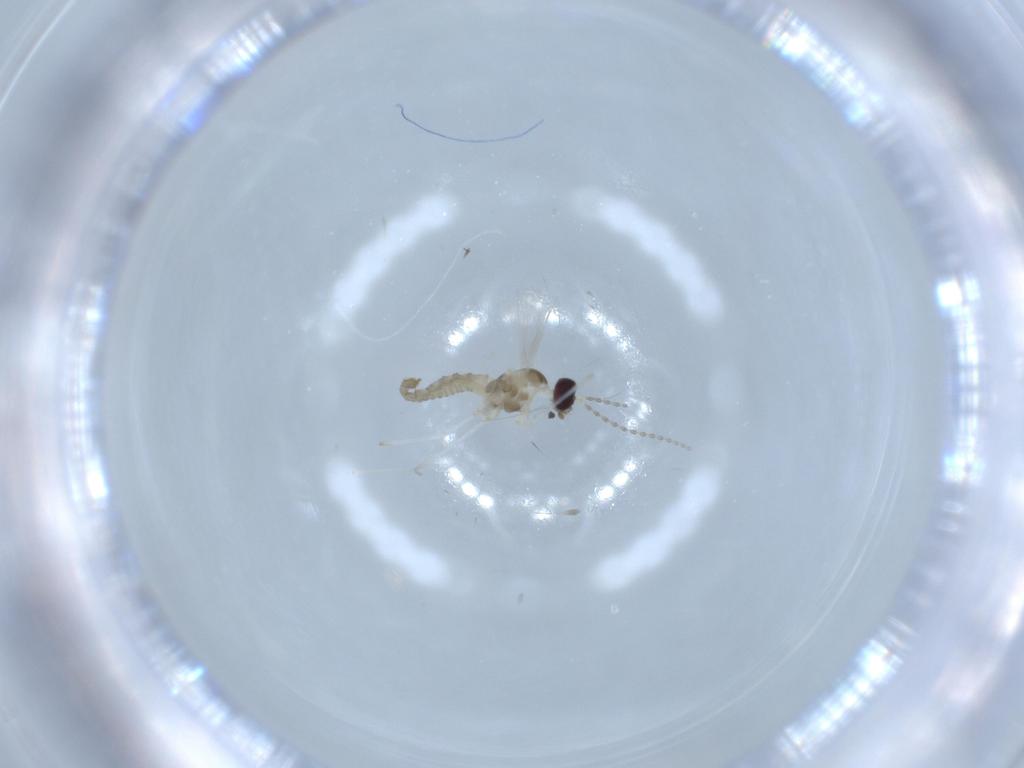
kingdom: Animalia
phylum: Arthropoda
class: Insecta
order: Diptera
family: Cecidomyiidae
